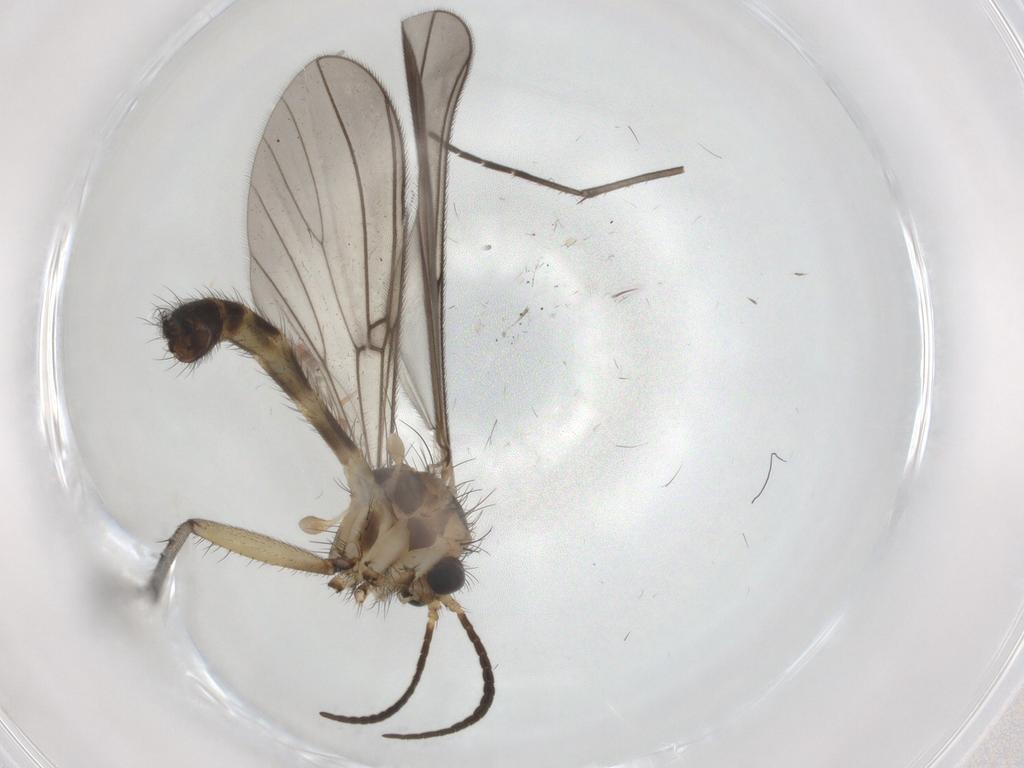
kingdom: Animalia
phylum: Arthropoda
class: Insecta
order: Diptera
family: Mycetophilidae
